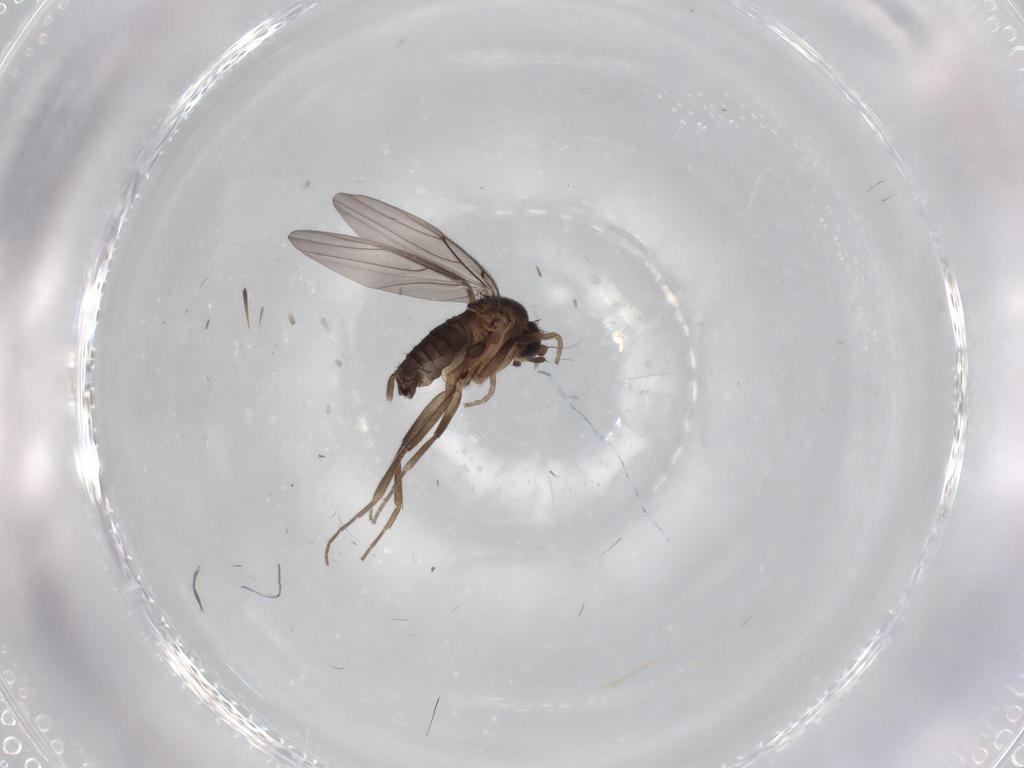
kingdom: Animalia
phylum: Arthropoda
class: Insecta
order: Diptera
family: Phoridae
